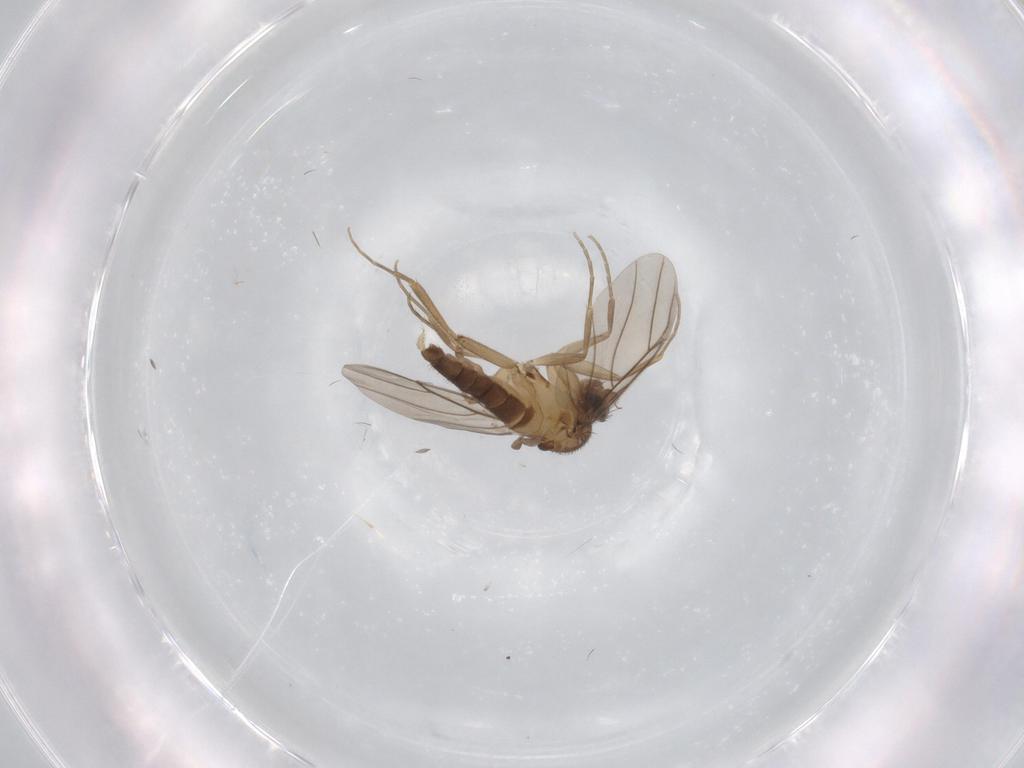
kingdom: Animalia
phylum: Arthropoda
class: Insecta
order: Diptera
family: Phoridae
